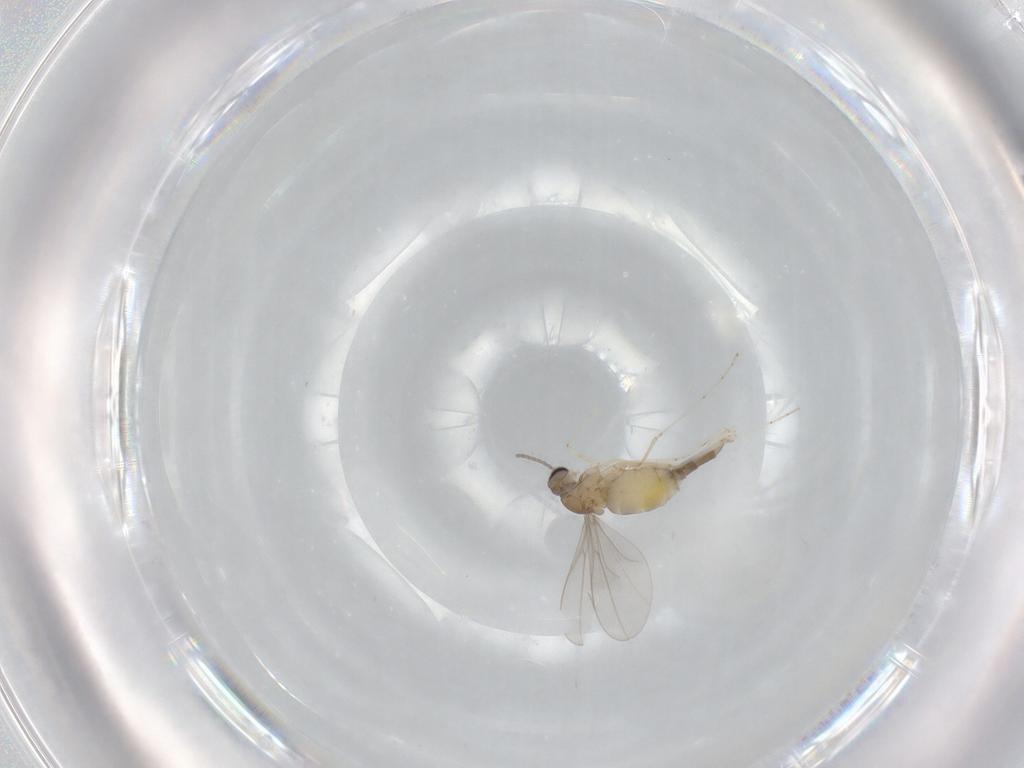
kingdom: Animalia
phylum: Arthropoda
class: Insecta
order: Diptera
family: Cecidomyiidae
